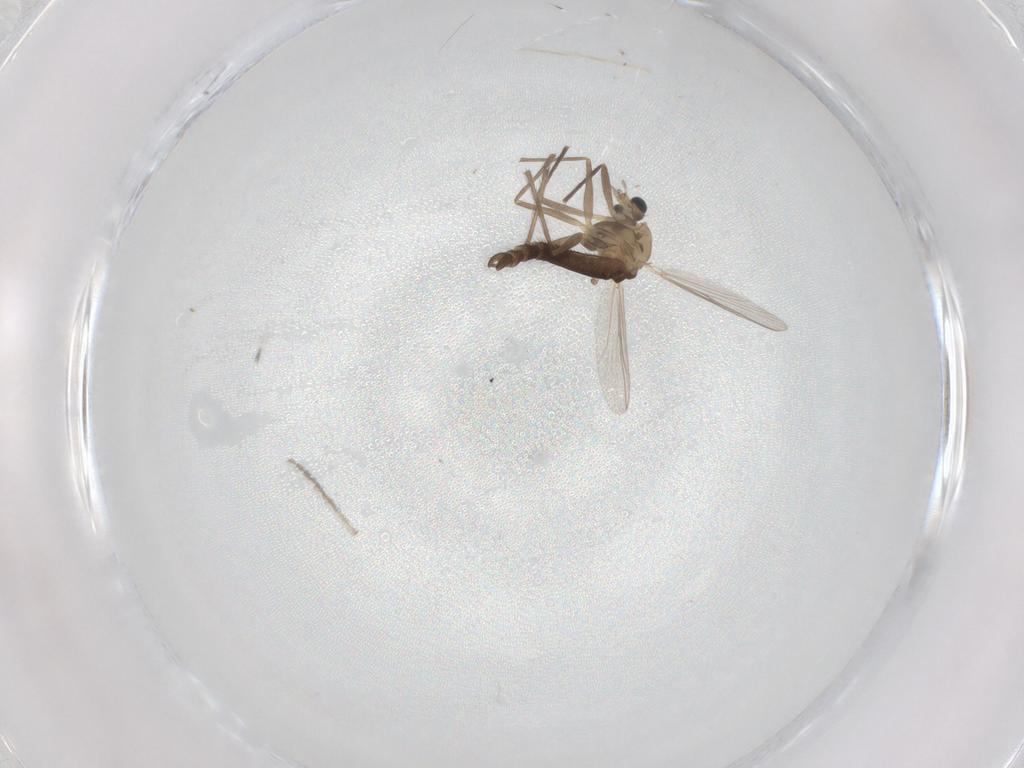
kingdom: Animalia
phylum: Arthropoda
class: Insecta
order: Diptera
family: Chironomidae
